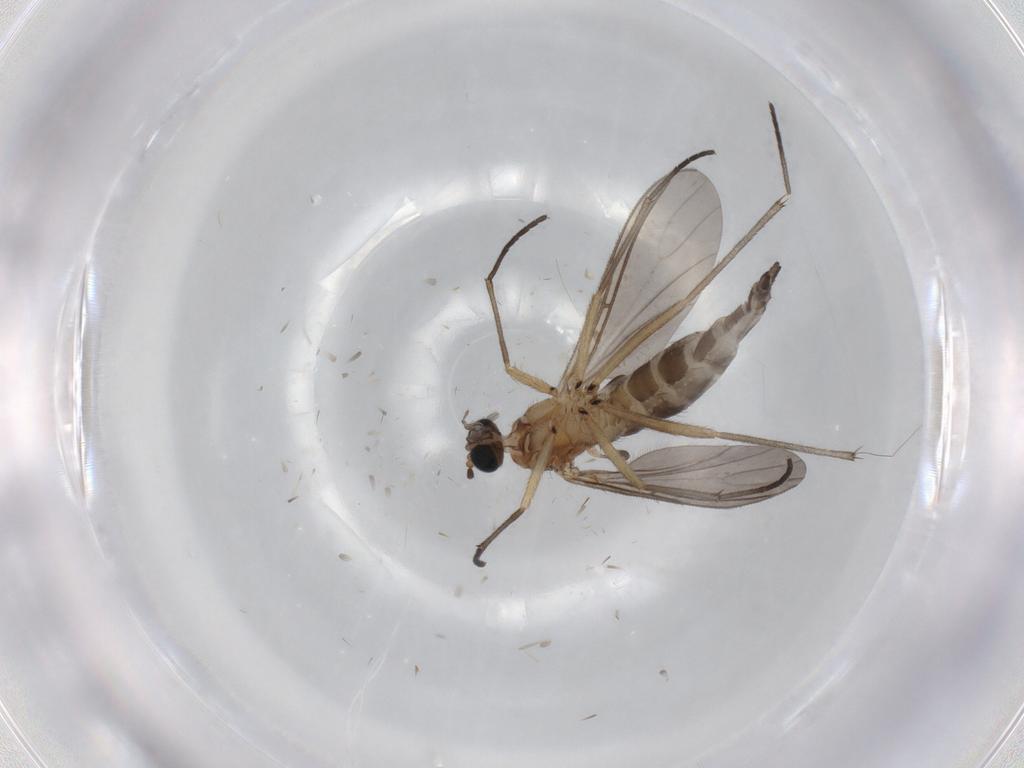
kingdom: Animalia
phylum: Arthropoda
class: Insecta
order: Diptera
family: Sciaridae
